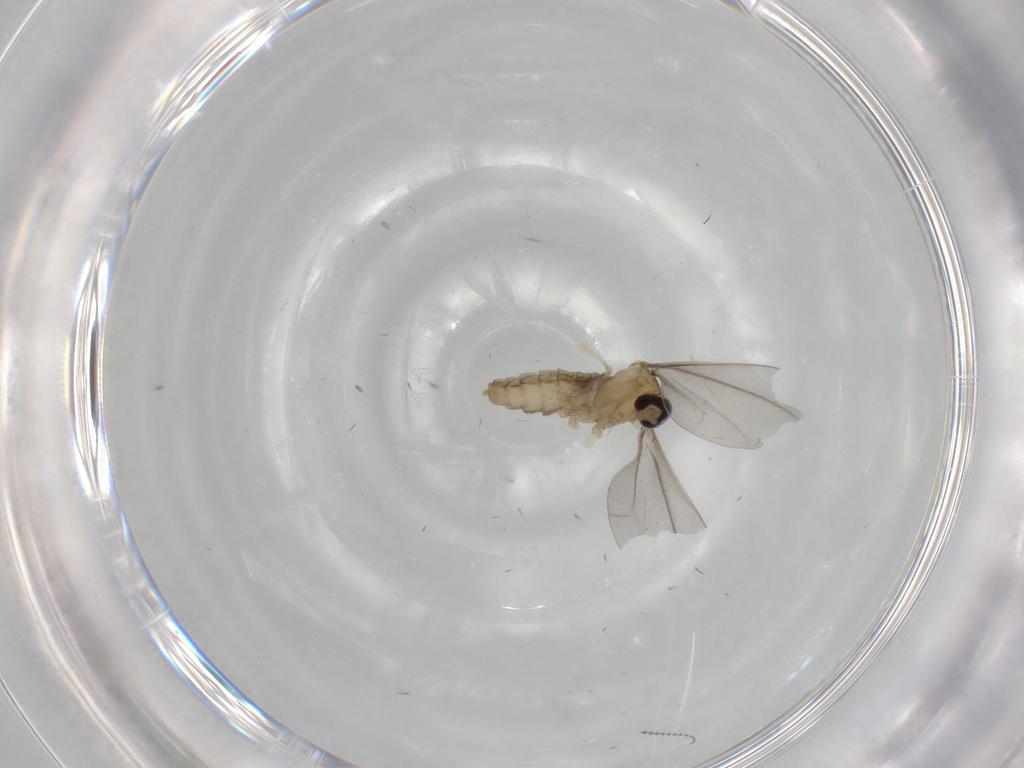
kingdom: Animalia
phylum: Arthropoda
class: Insecta
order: Diptera
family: Cecidomyiidae
